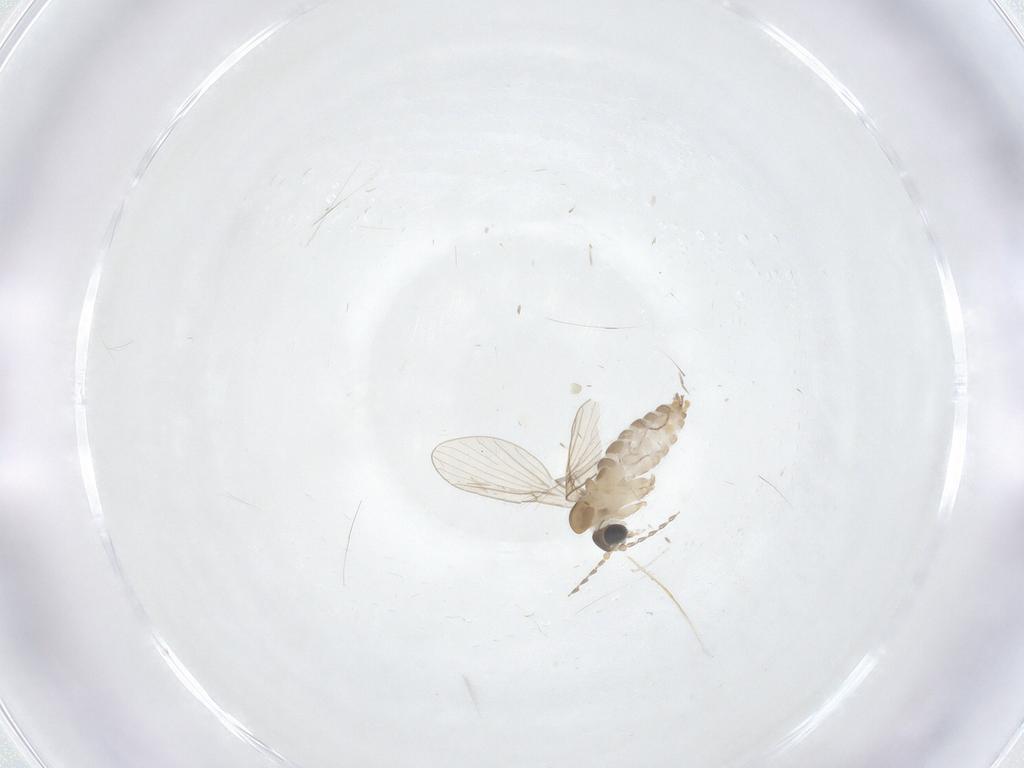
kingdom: Animalia
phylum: Arthropoda
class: Insecta
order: Diptera
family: Psychodidae
